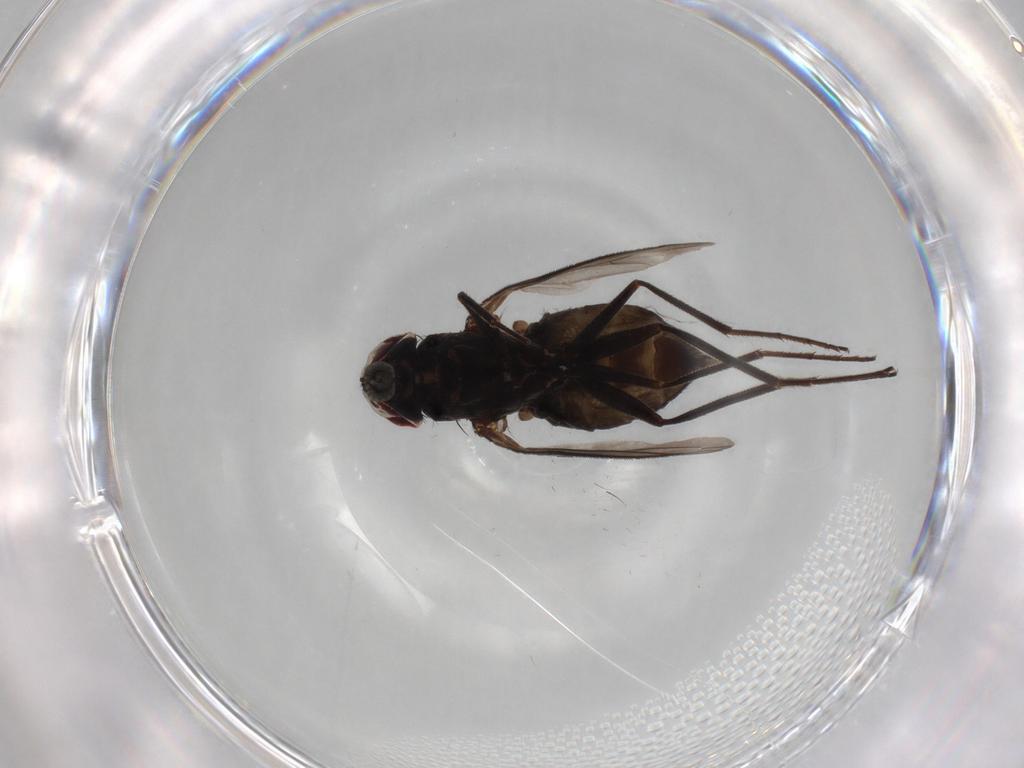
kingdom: Animalia
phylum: Arthropoda
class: Insecta
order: Diptera
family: Dolichopodidae
